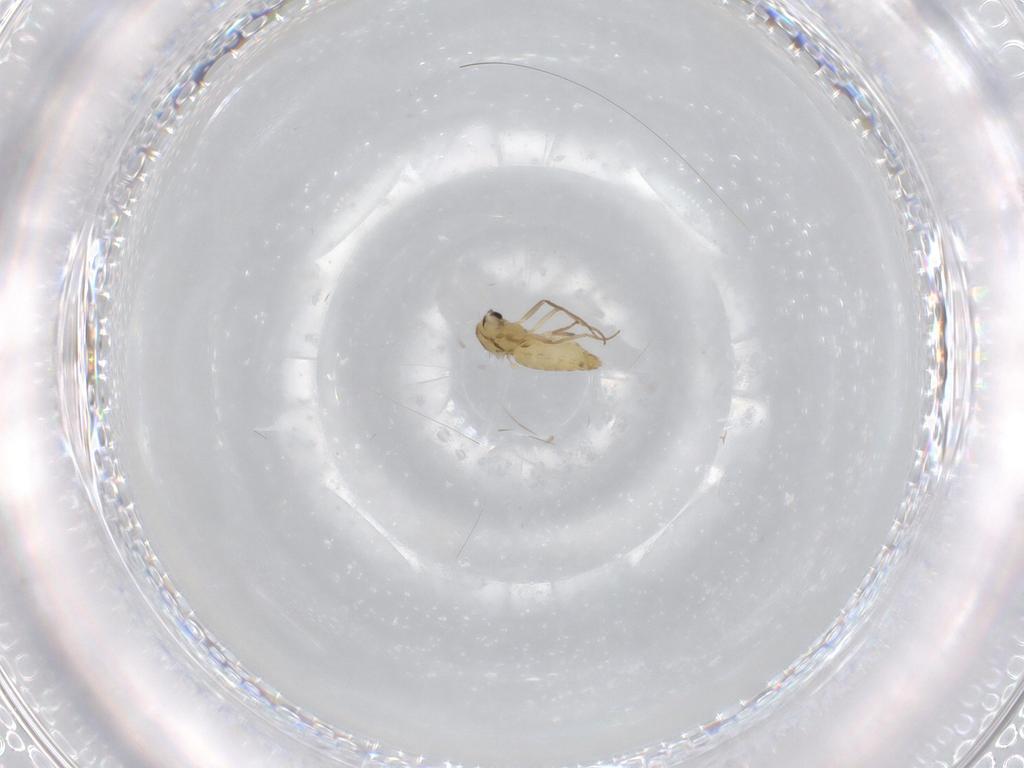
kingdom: Animalia
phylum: Arthropoda
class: Insecta
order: Diptera
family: Chironomidae
